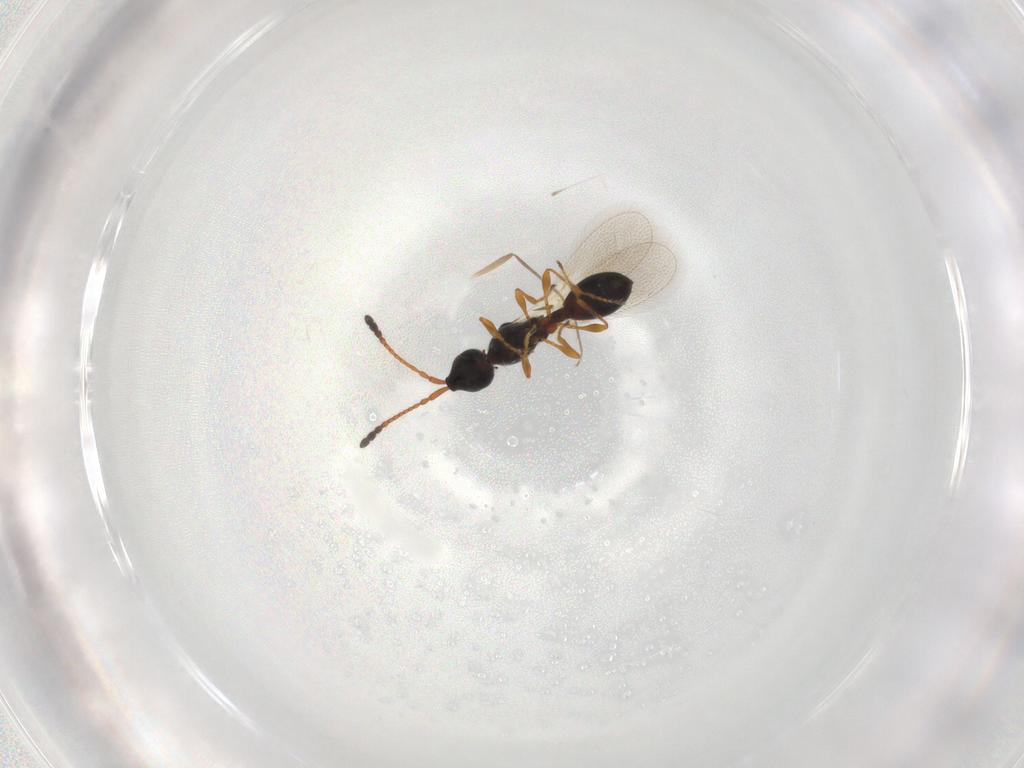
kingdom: Animalia
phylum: Arthropoda
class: Insecta
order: Hymenoptera
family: Diapriidae
